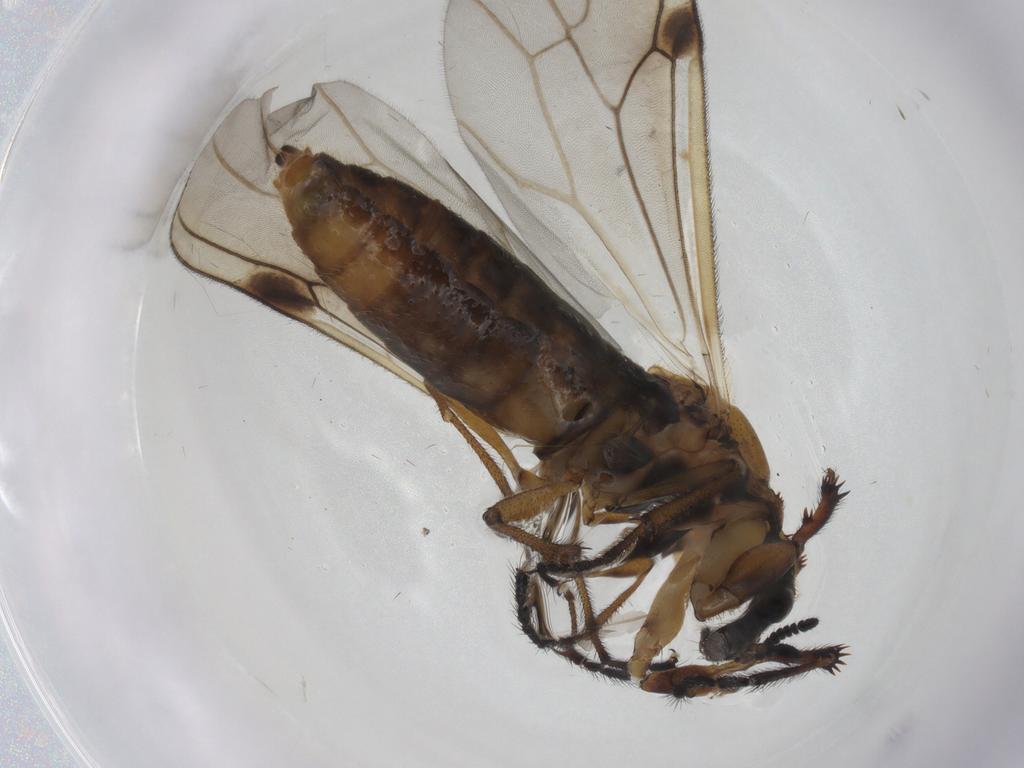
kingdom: Animalia
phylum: Arthropoda
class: Insecta
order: Diptera
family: Bibionidae
